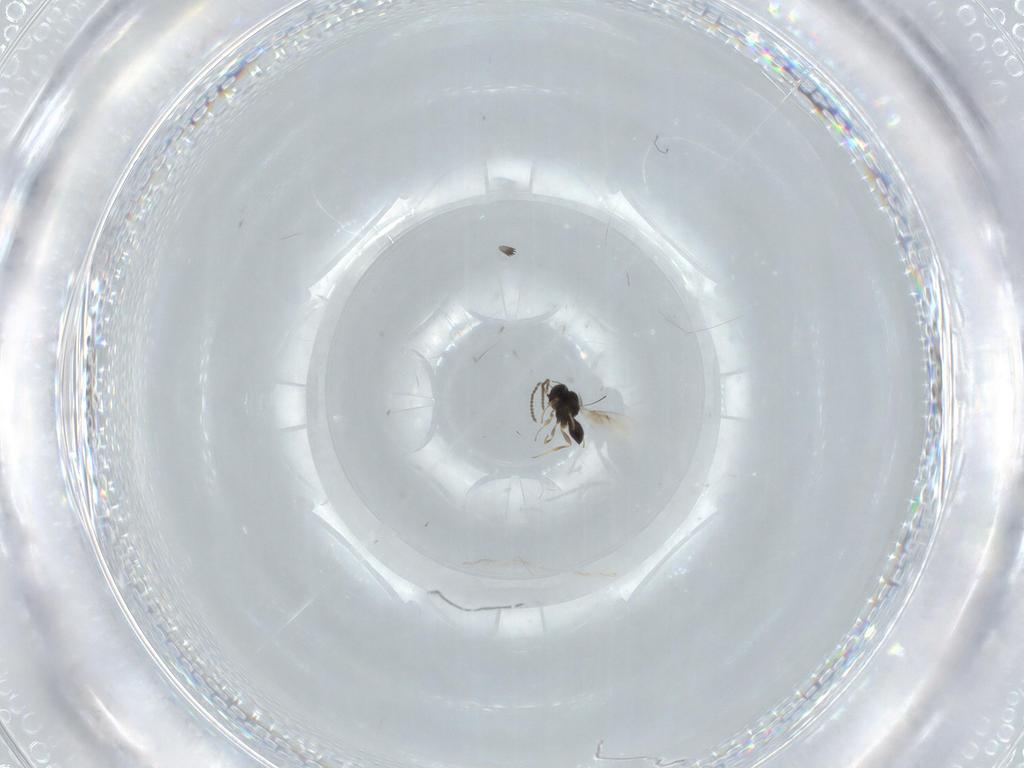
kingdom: Animalia
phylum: Arthropoda
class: Insecta
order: Hymenoptera
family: Scelionidae
